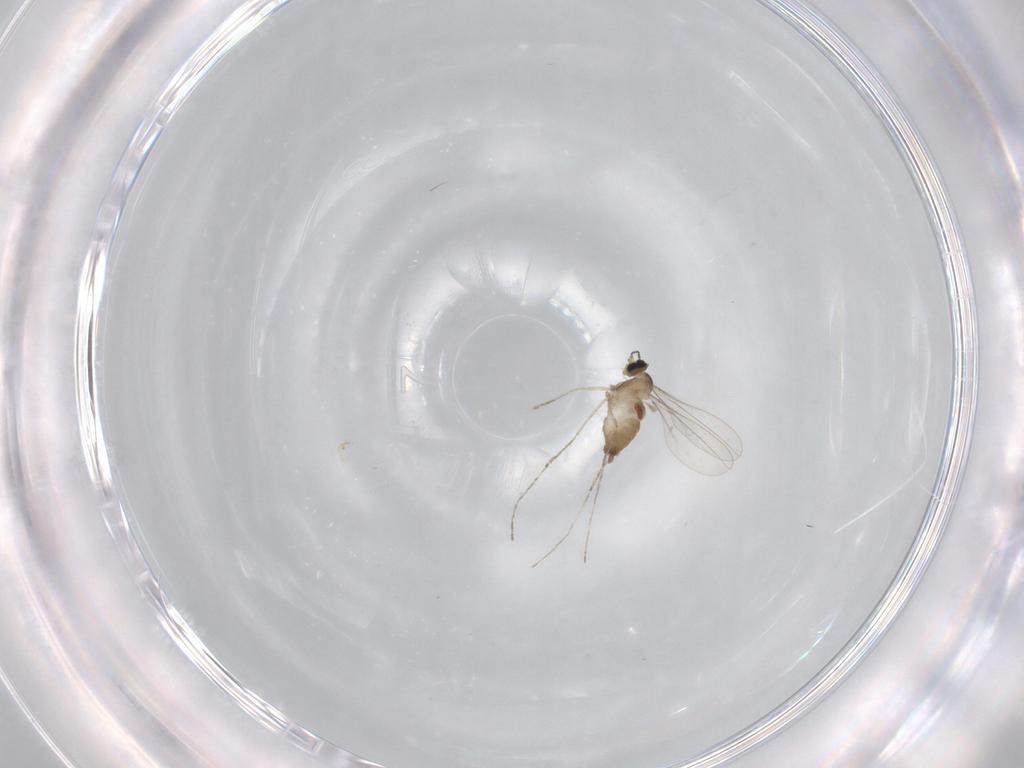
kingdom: Animalia
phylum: Arthropoda
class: Insecta
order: Diptera
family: Cecidomyiidae
